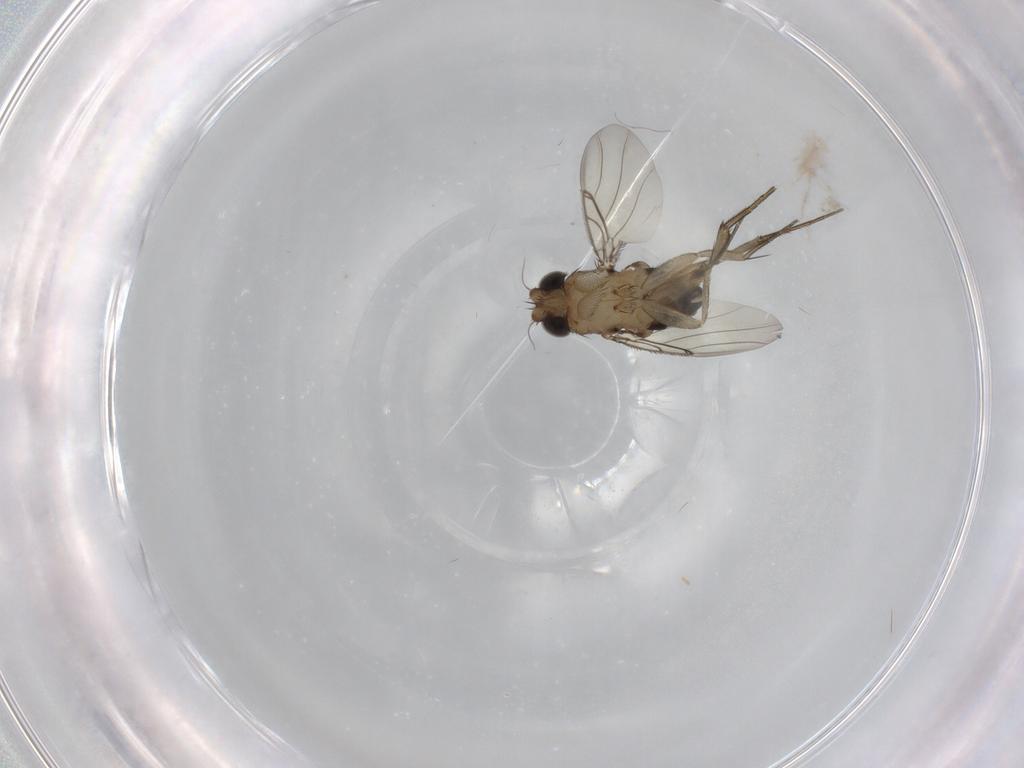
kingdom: Animalia
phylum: Arthropoda
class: Insecta
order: Diptera
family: Phoridae
